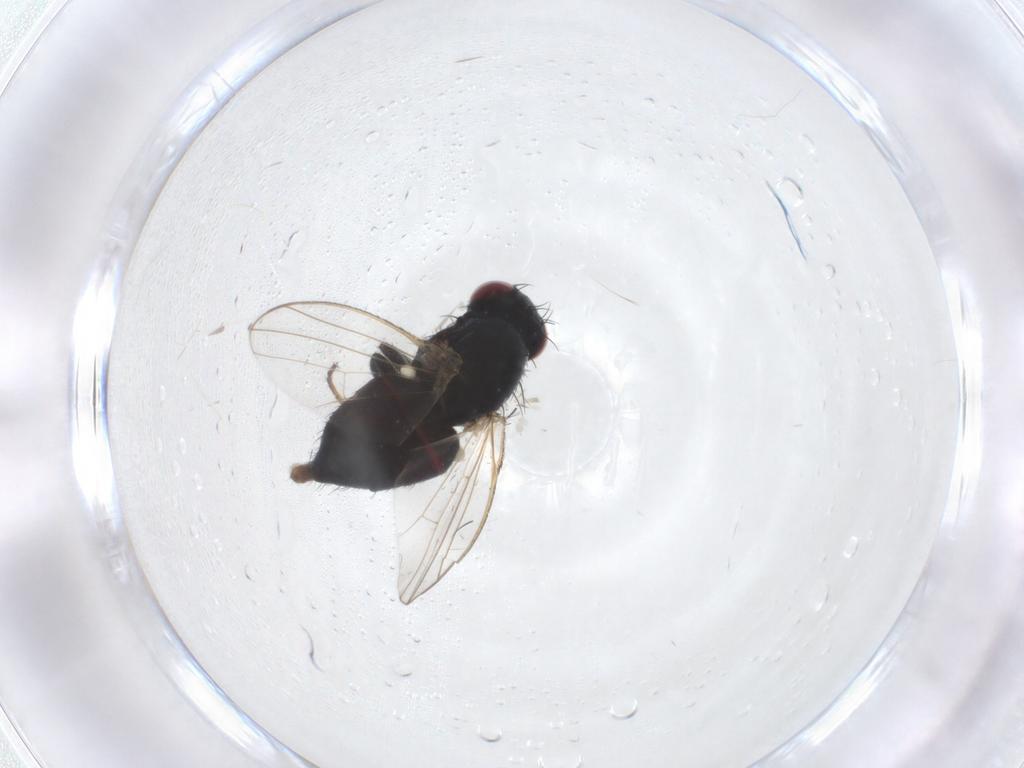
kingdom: Animalia
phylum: Arthropoda
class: Insecta
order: Diptera
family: Carnidae
